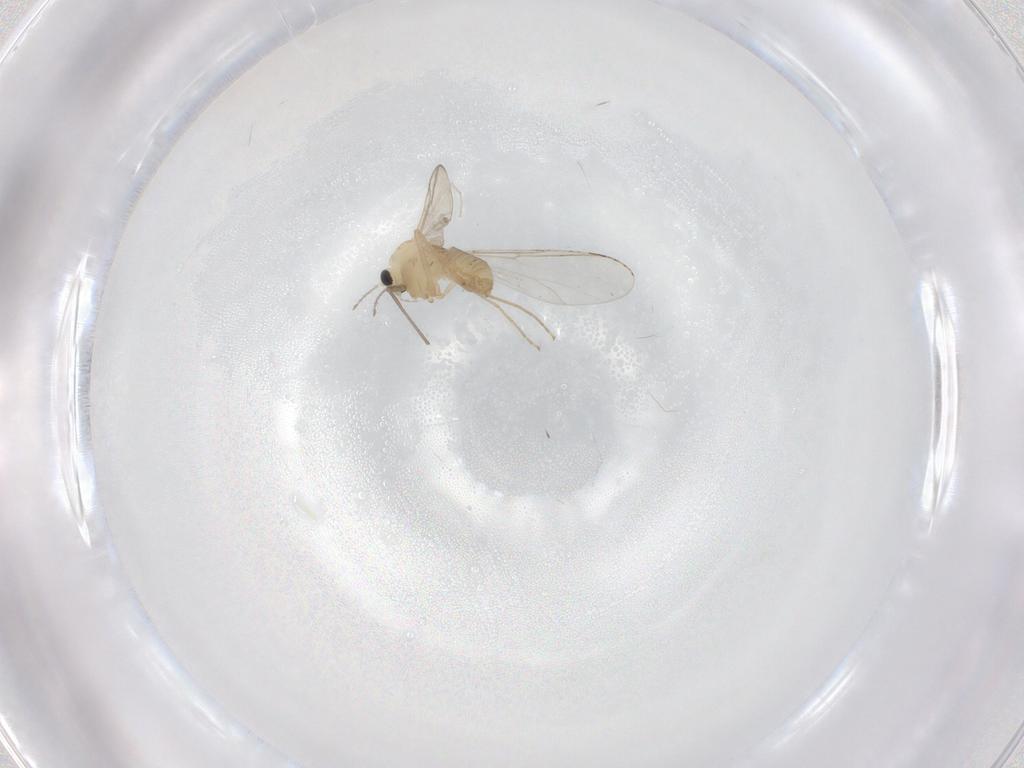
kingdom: Animalia
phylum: Arthropoda
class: Insecta
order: Diptera
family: Chironomidae
